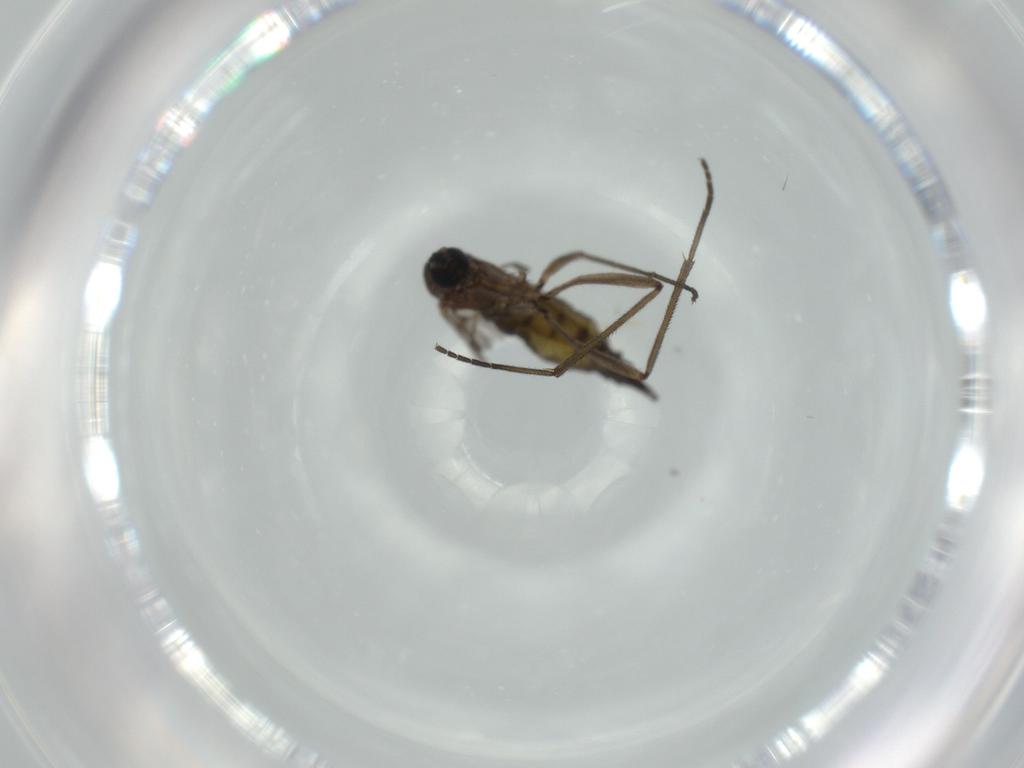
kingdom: Animalia
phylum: Arthropoda
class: Insecta
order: Diptera
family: Sciaridae
